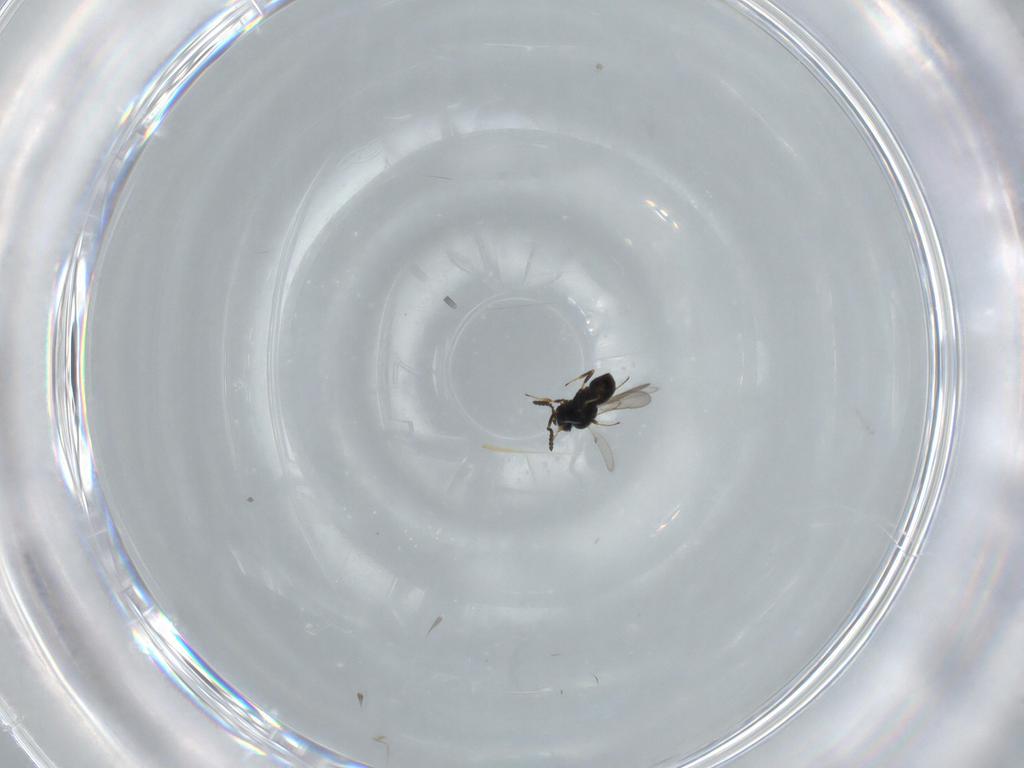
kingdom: Animalia
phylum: Arthropoda
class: Insecta
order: Hymenoptera
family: Scelionidae
